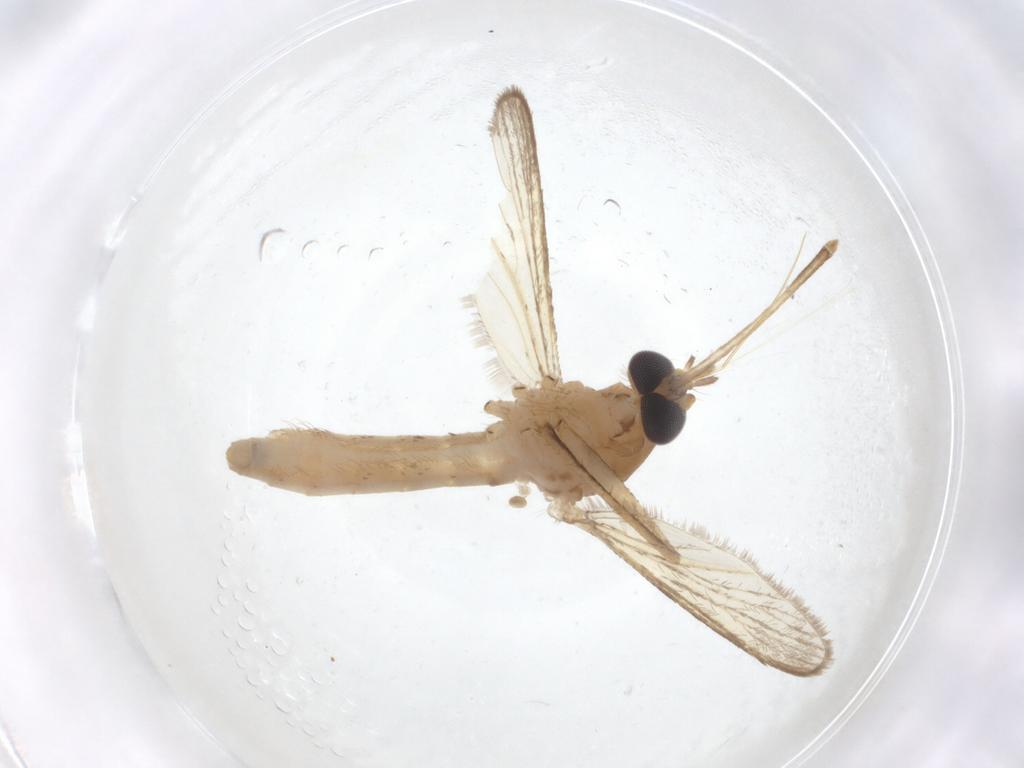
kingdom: Animalia
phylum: Arthropoda
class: Insecta
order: Diptera
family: Chironomidae
